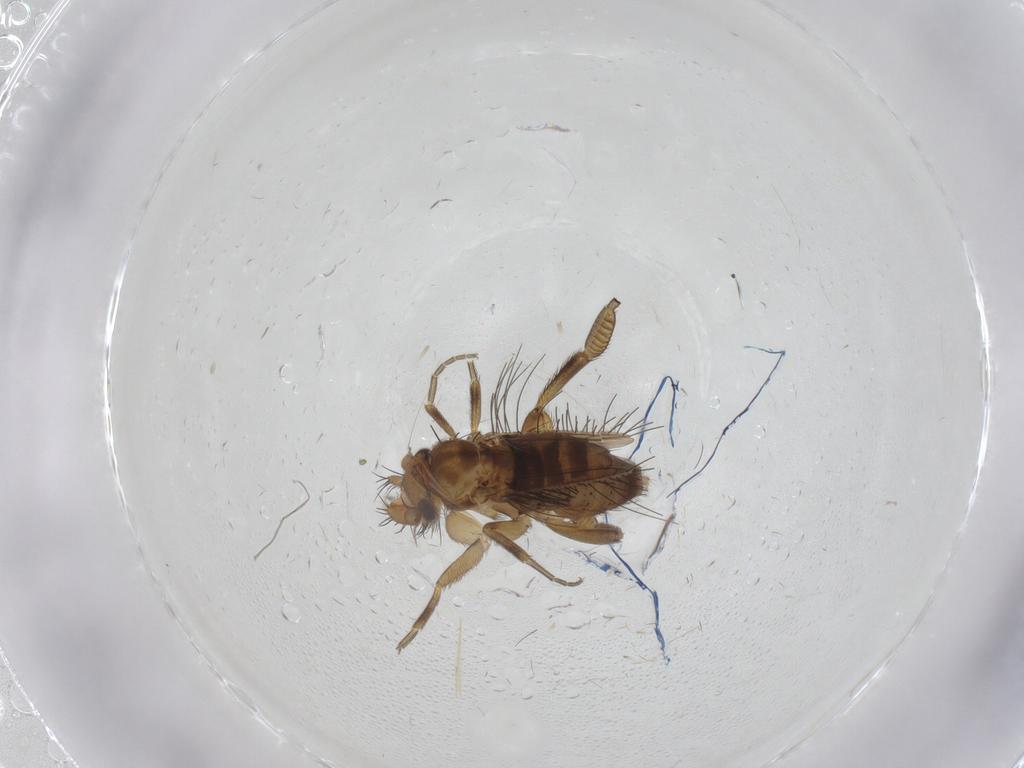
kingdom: Animalia
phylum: Arthropoda
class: Insecta
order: Diptera
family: Phoridae
